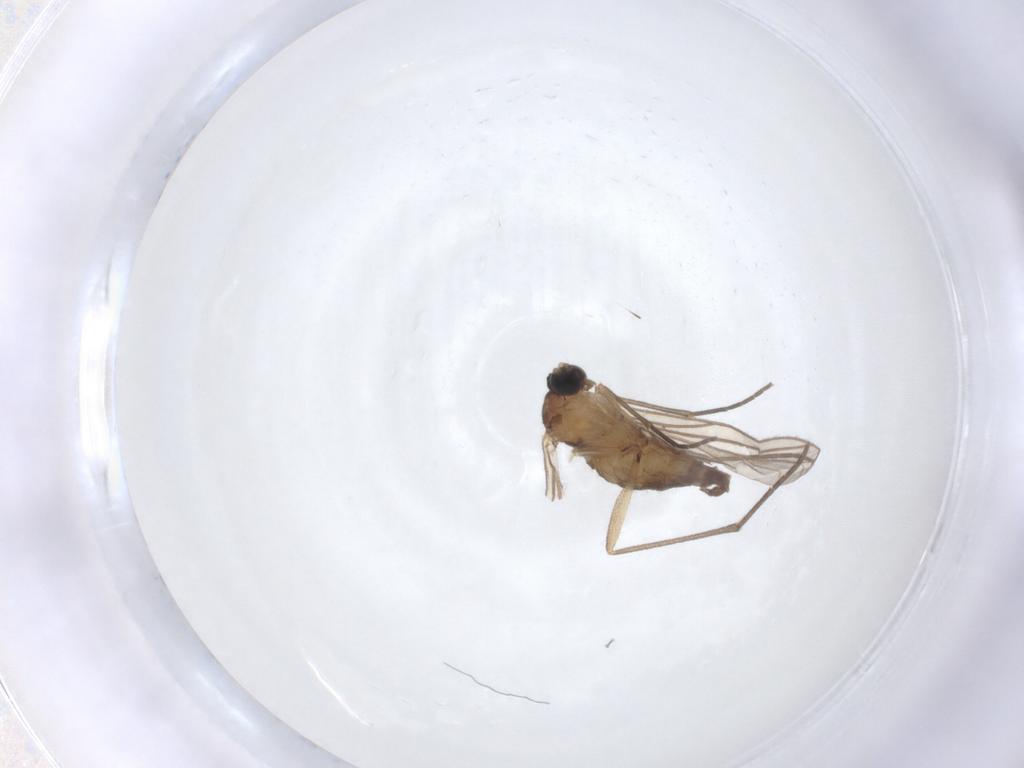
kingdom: Animalia
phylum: Arthropoda
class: Insecta
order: Diptera
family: Sciaridae
